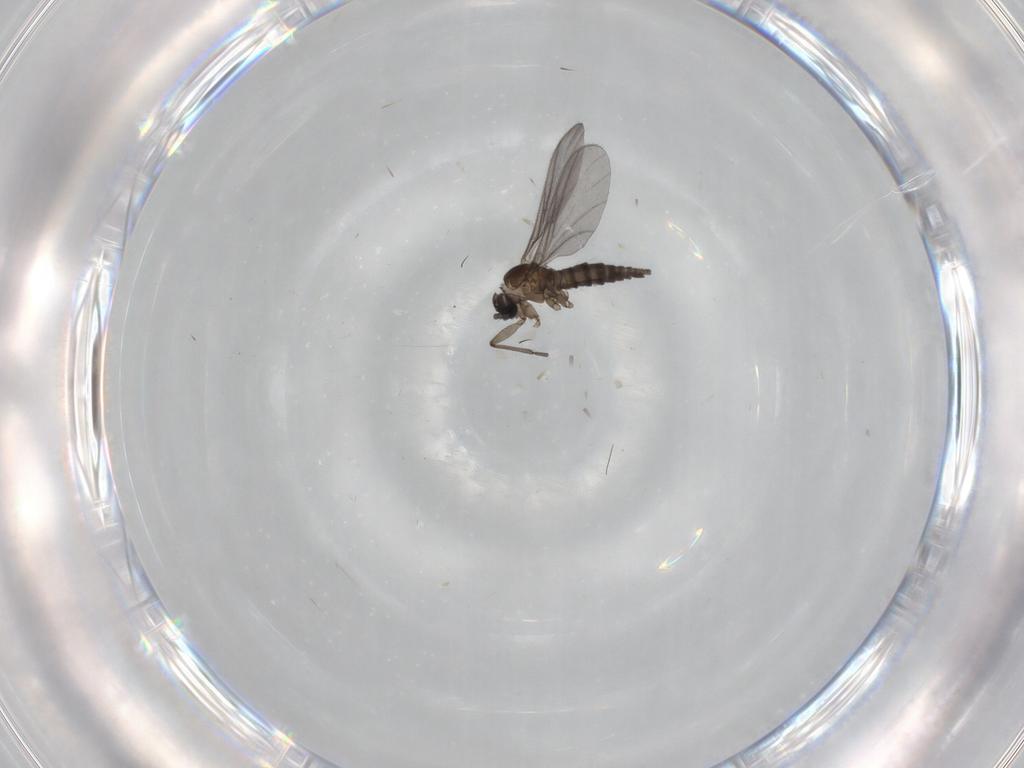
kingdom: Animalia
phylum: Arthropoda
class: Insecta
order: Diptera
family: Sciaridae
